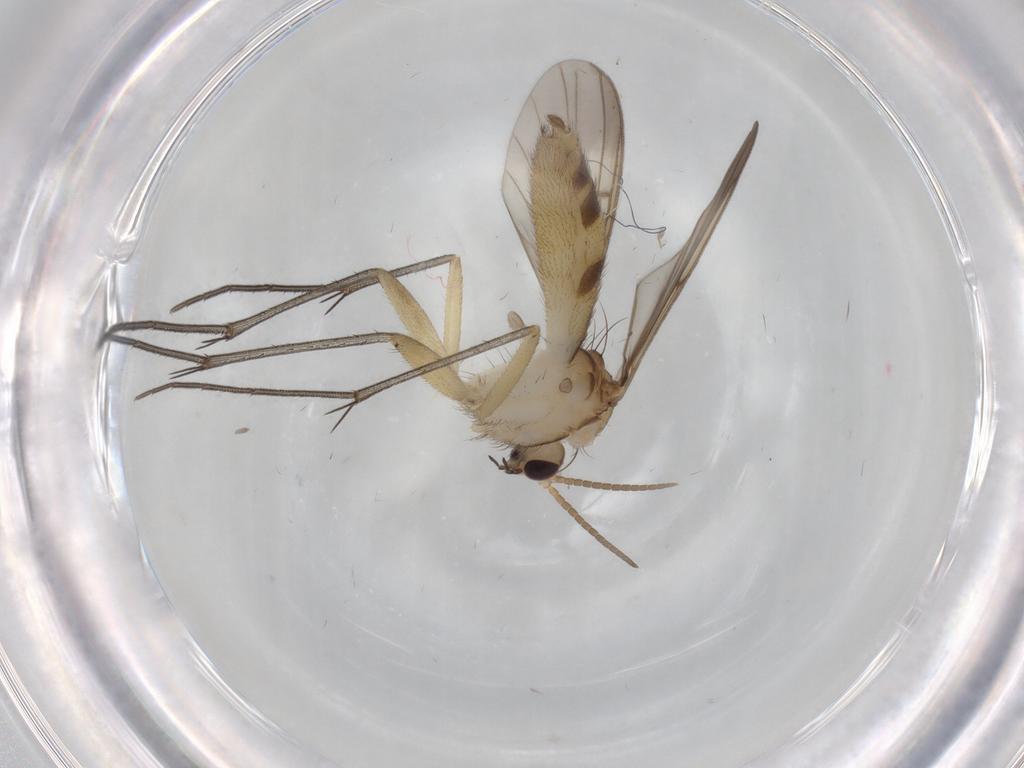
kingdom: Animalia
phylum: Arthropoda
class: Insecta
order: Diptera
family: Mycetophilidae
